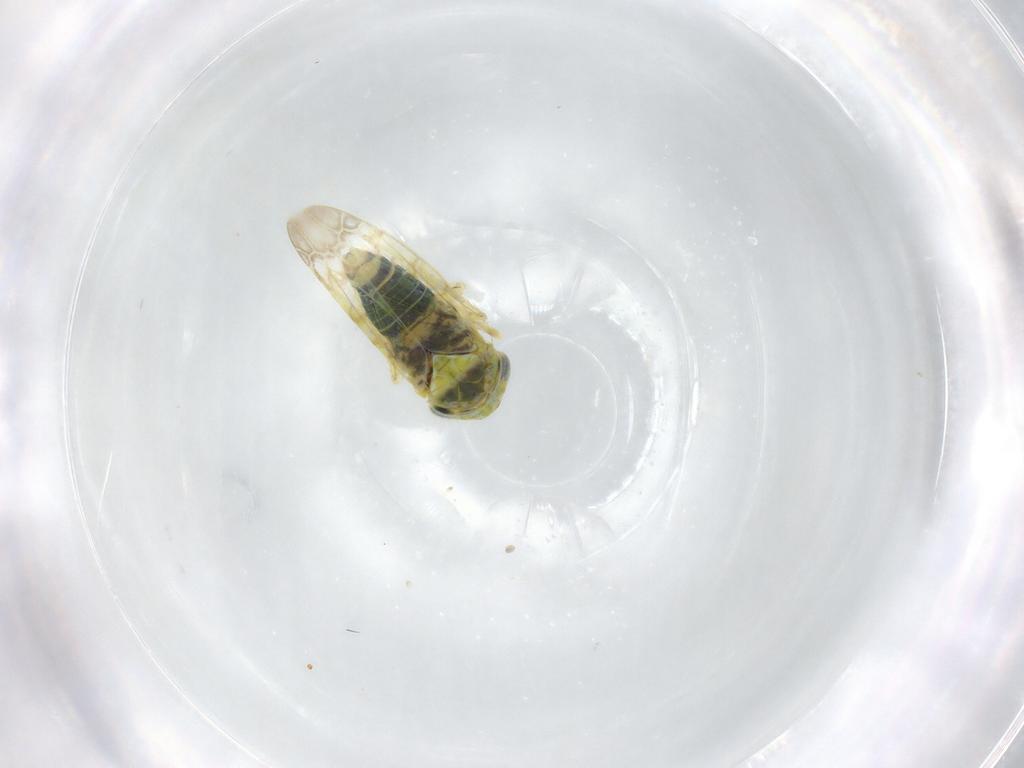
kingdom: Animalia
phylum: Arthropoda
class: Insecta
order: Hemiptera
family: Cicadellidae
